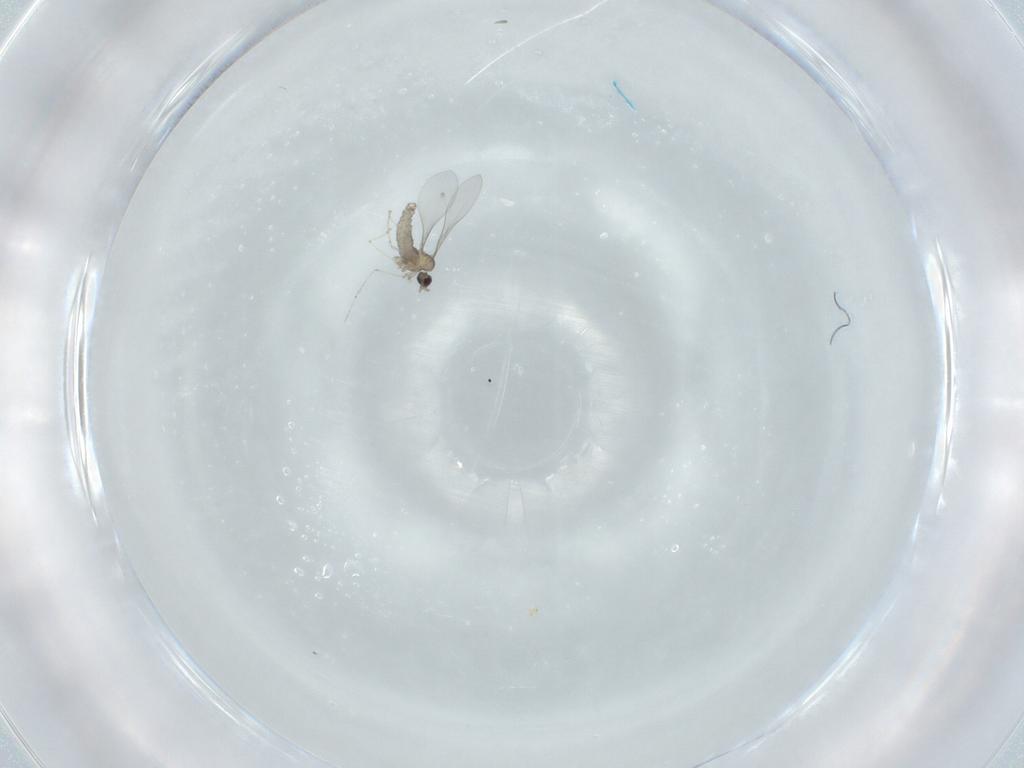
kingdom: Animalia
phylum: Arthropoda
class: Insecta
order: Diptera
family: Cecidomyiidae
